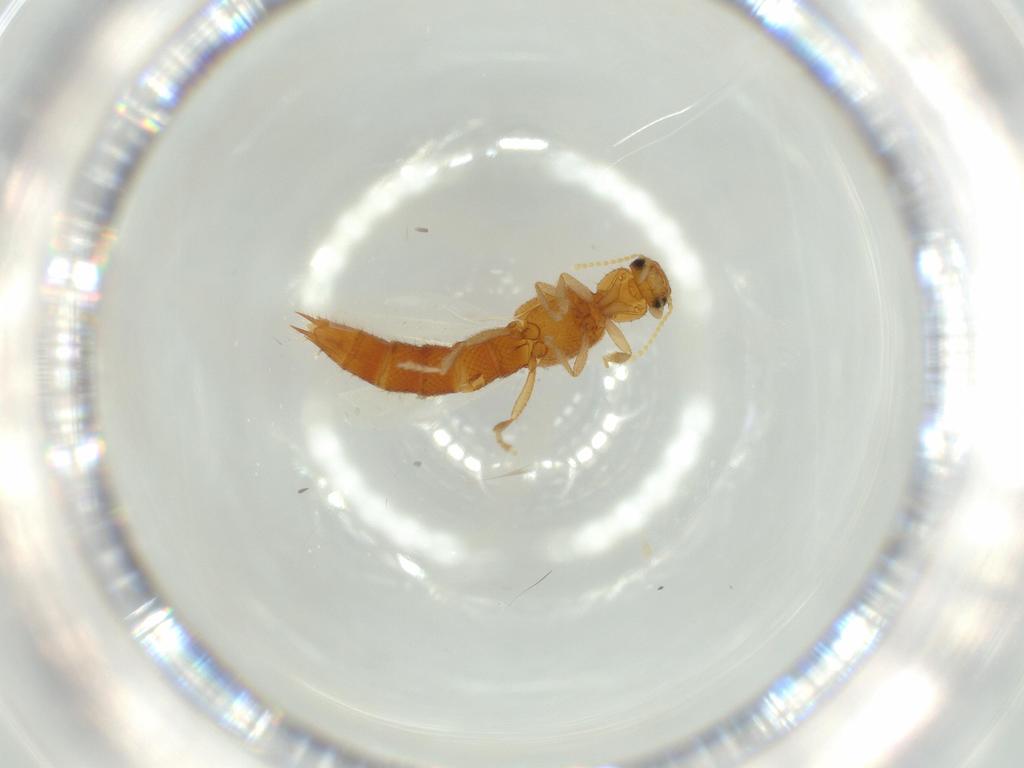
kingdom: Animalia
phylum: Arthropoda
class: Insecta
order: Coleoptera
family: Staphylinidae
